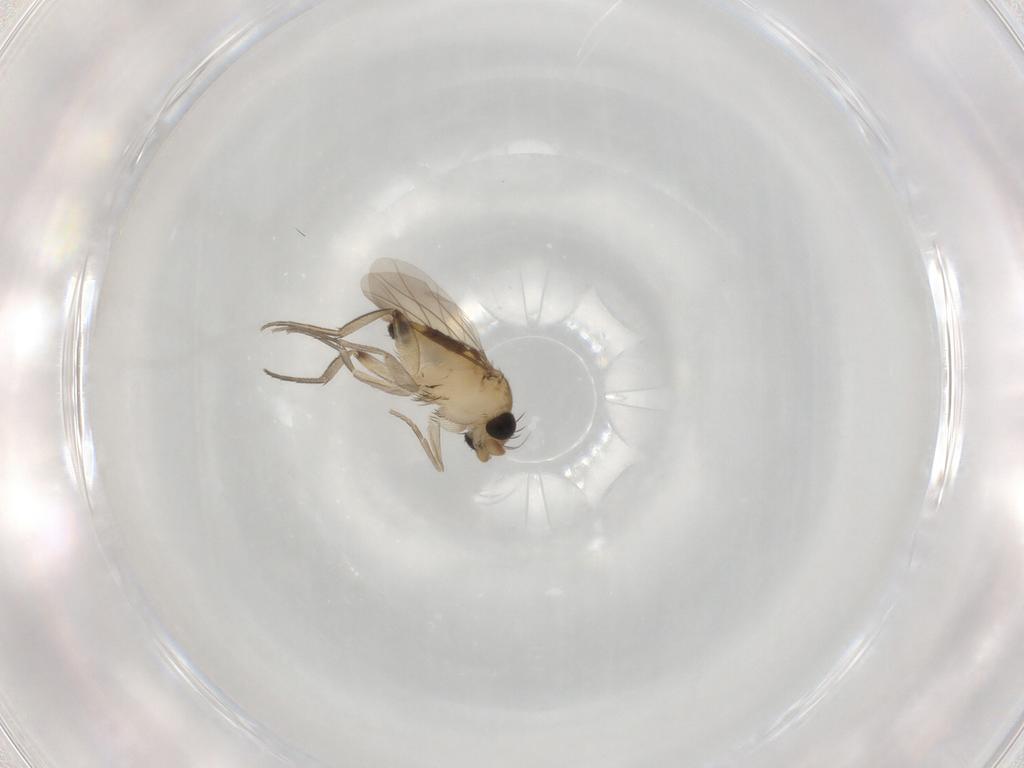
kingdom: Animalia
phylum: Arthropoda
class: Insecta
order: Diptera
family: Phoridae
